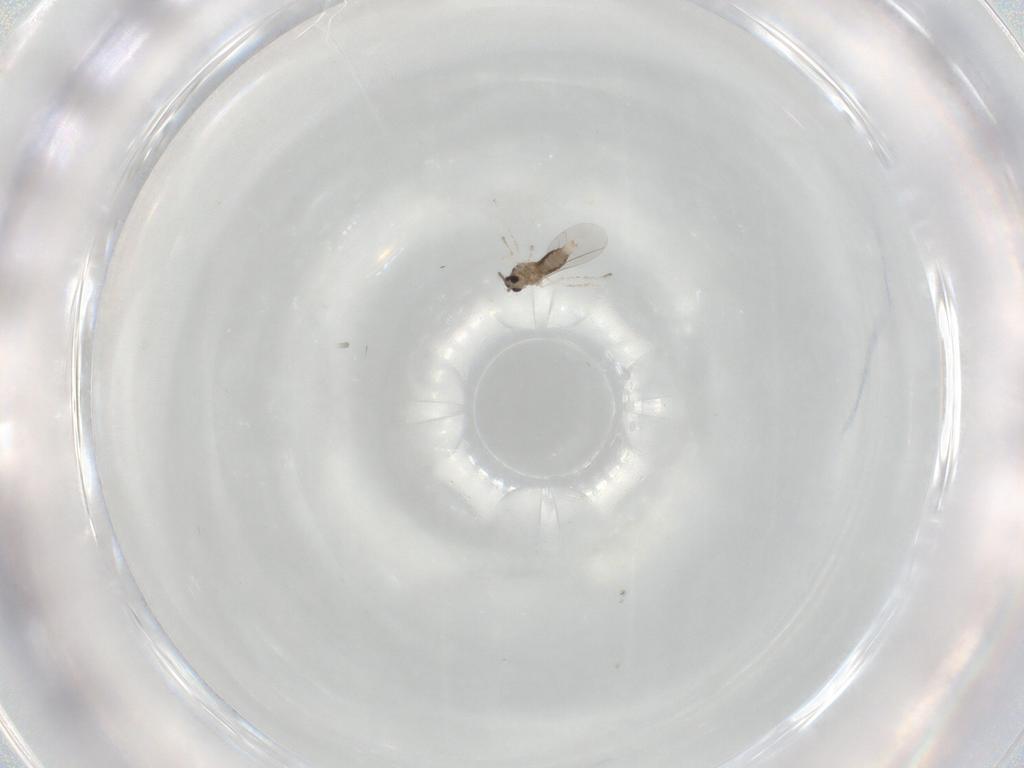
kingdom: Animalia
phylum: Arthropoda
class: Insecta
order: Diptera
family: Cecidomyiidae
